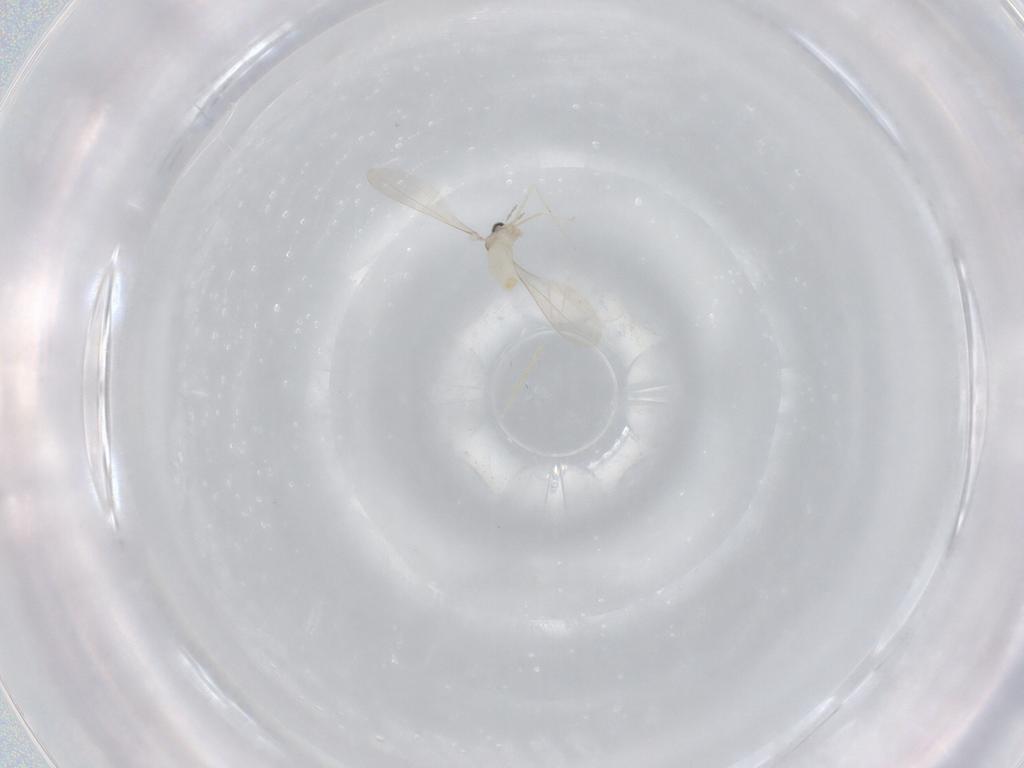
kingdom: Animalia
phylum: Arthropoda
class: Insecta
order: Diptera
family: Cecidomyiidae
